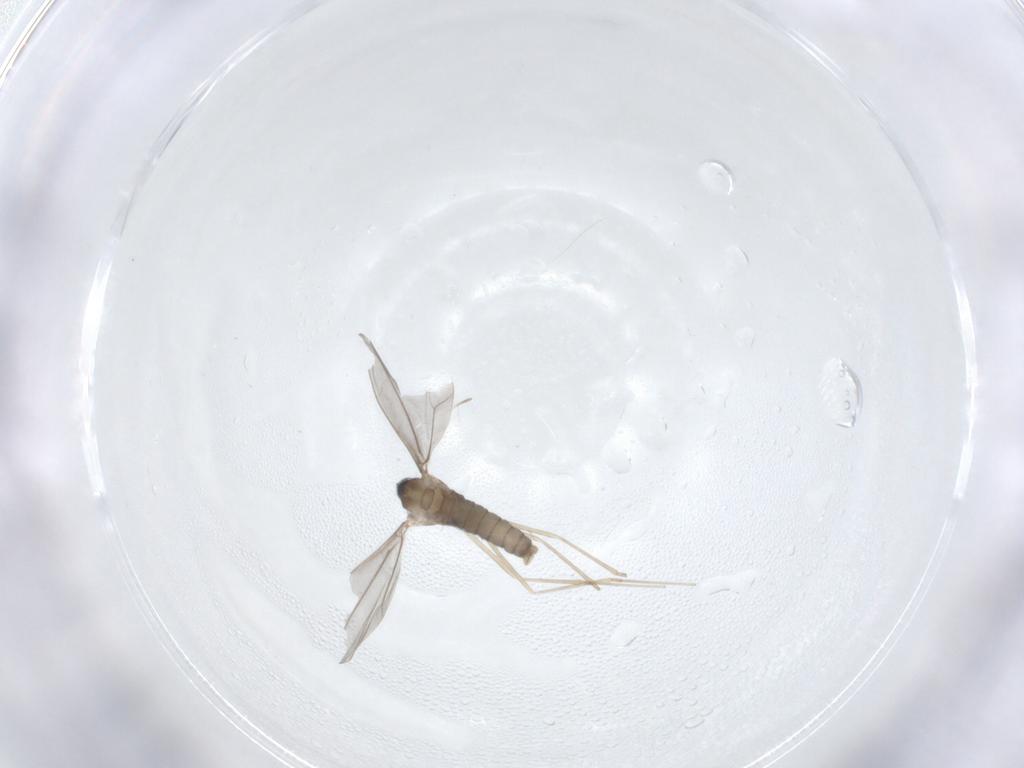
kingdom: Animalia
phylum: Arthropoda
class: Insecta
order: Diptera
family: Cecidomyiidae
